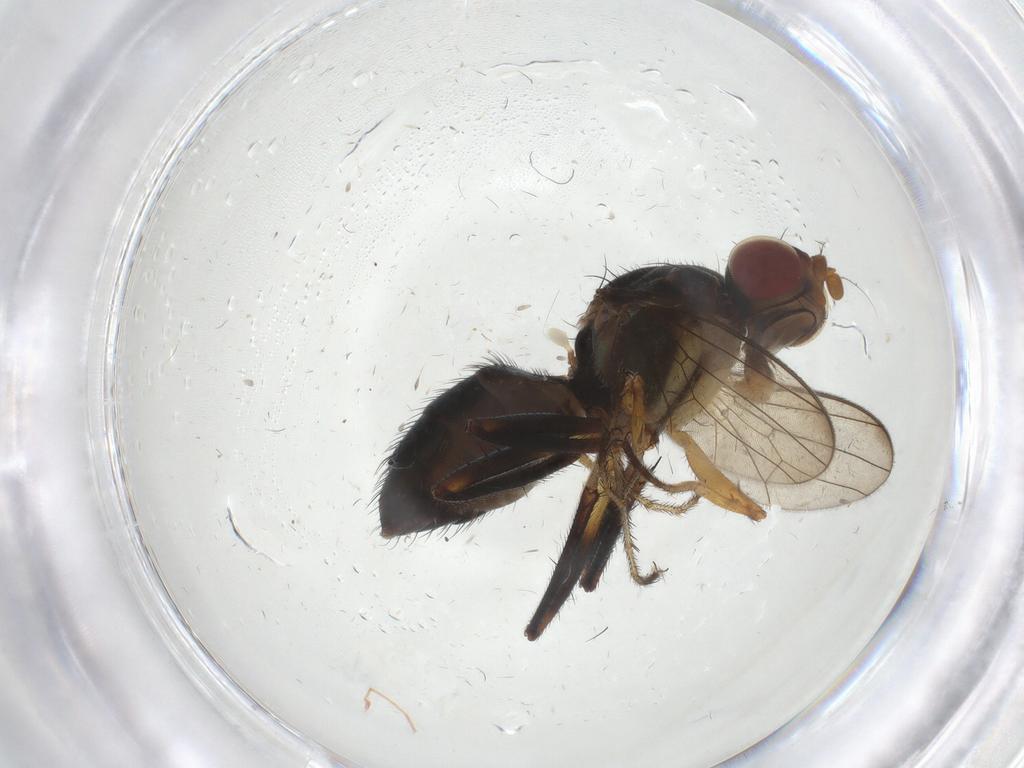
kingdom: Animalia
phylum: Arthropoda
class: Insecta
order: Diptera
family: Sepsidae
